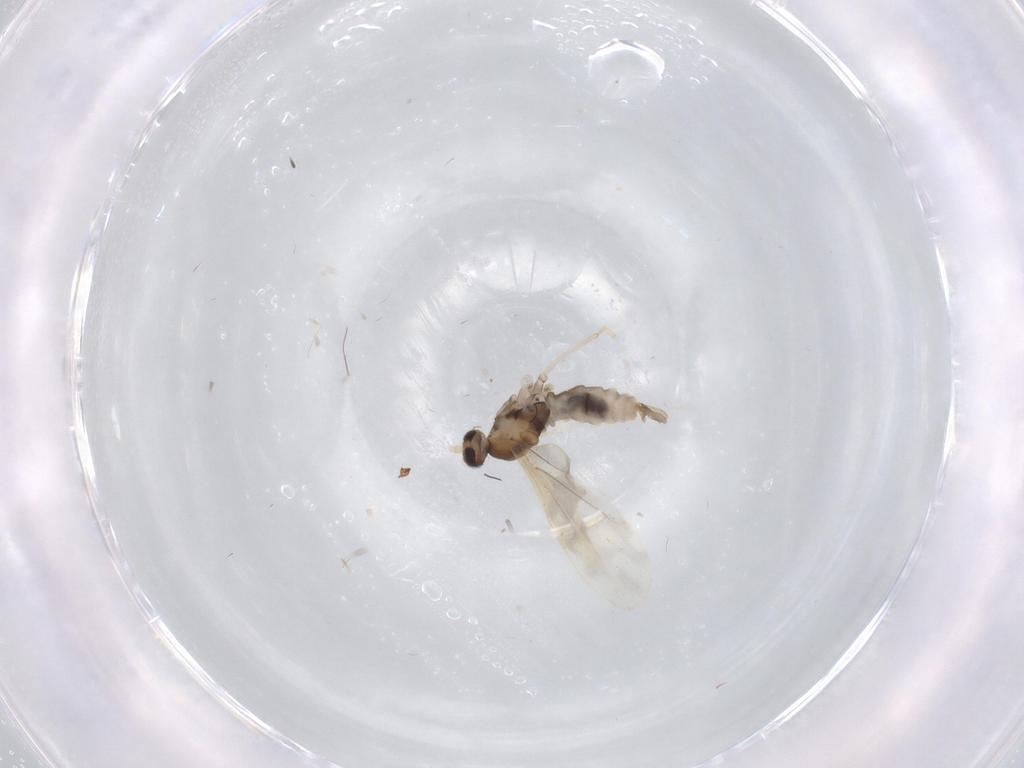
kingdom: Animalia
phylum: Arthropoda
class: Insecta
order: Diptera
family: Cecidomyiidae
